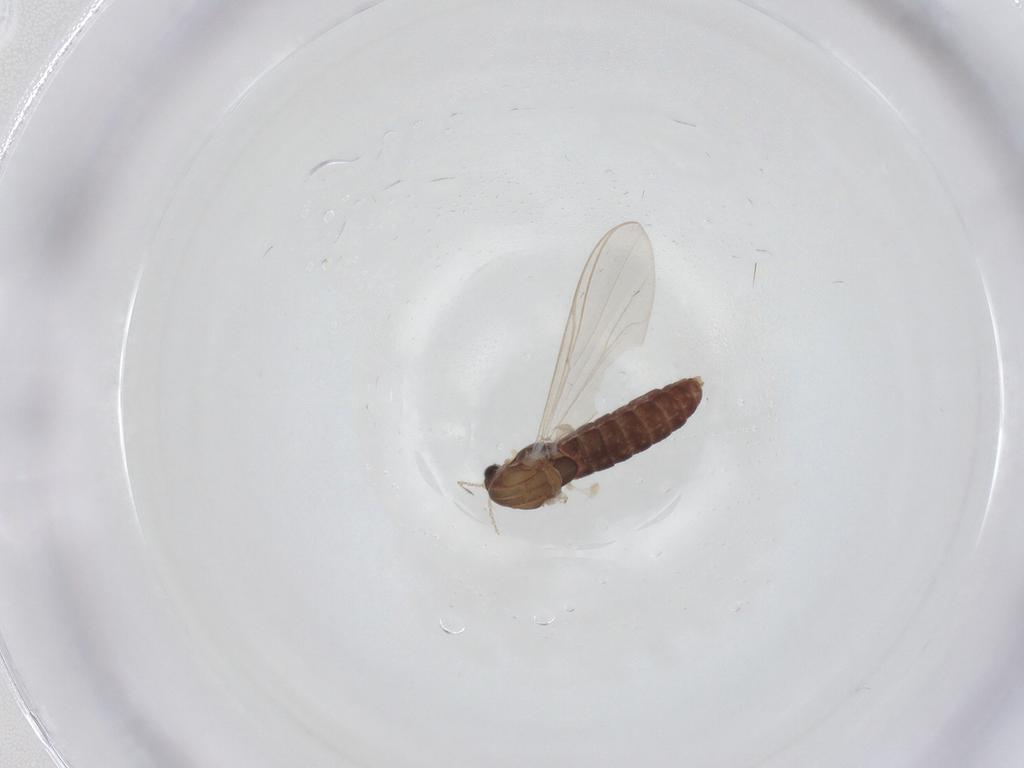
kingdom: Animalia
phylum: Arthropoda
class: Insecta
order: Diptera
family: Chironomidae
